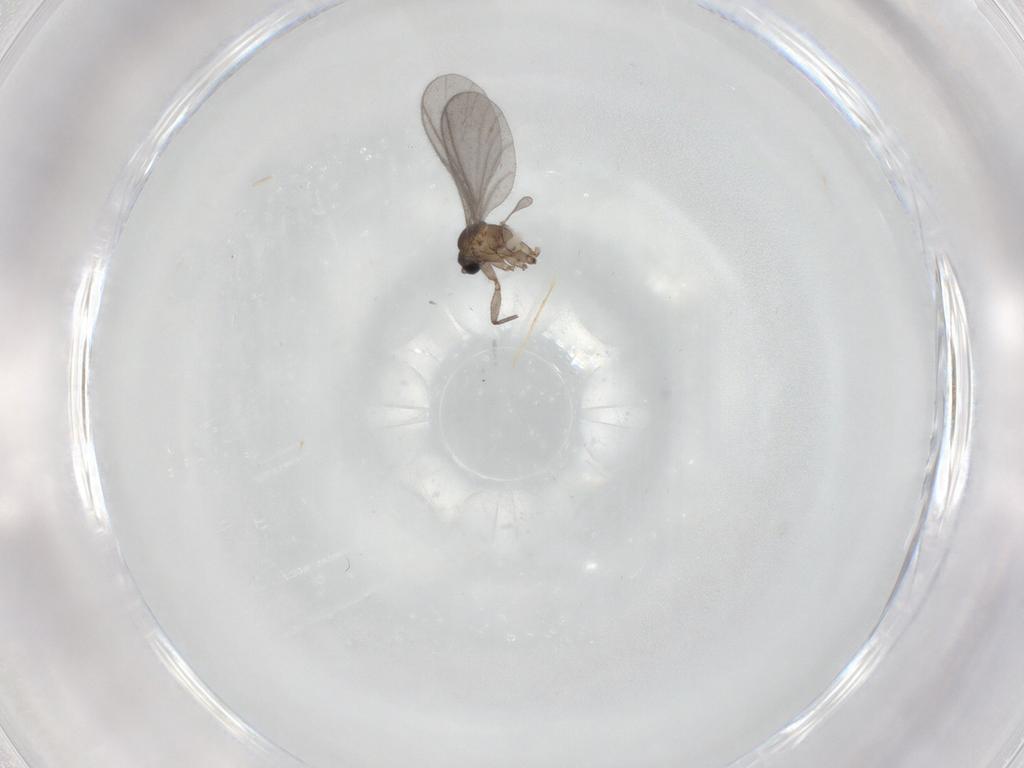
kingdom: Animalia
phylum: Arthropoda
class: Insecta
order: Diptera
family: Sciaridae
